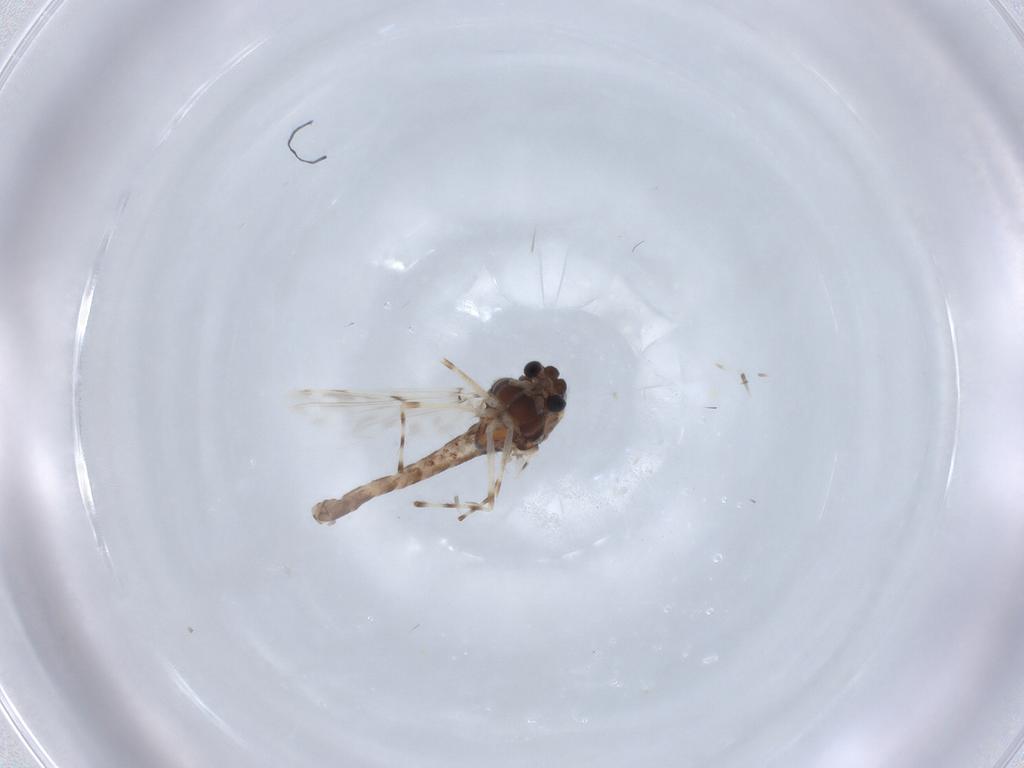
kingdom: Animalia
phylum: Arthropoda
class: Insecta
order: Diptera
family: Chironomidae
